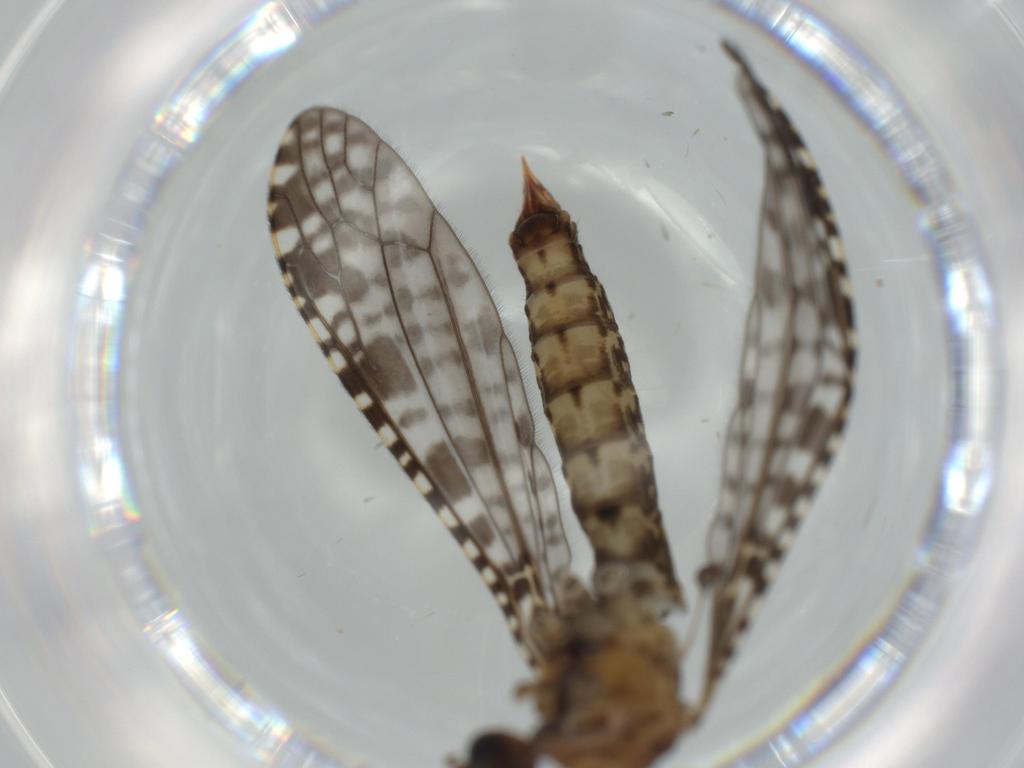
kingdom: Animalia
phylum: Arthropoda
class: Insecta
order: Diptera
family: Limoniidae
